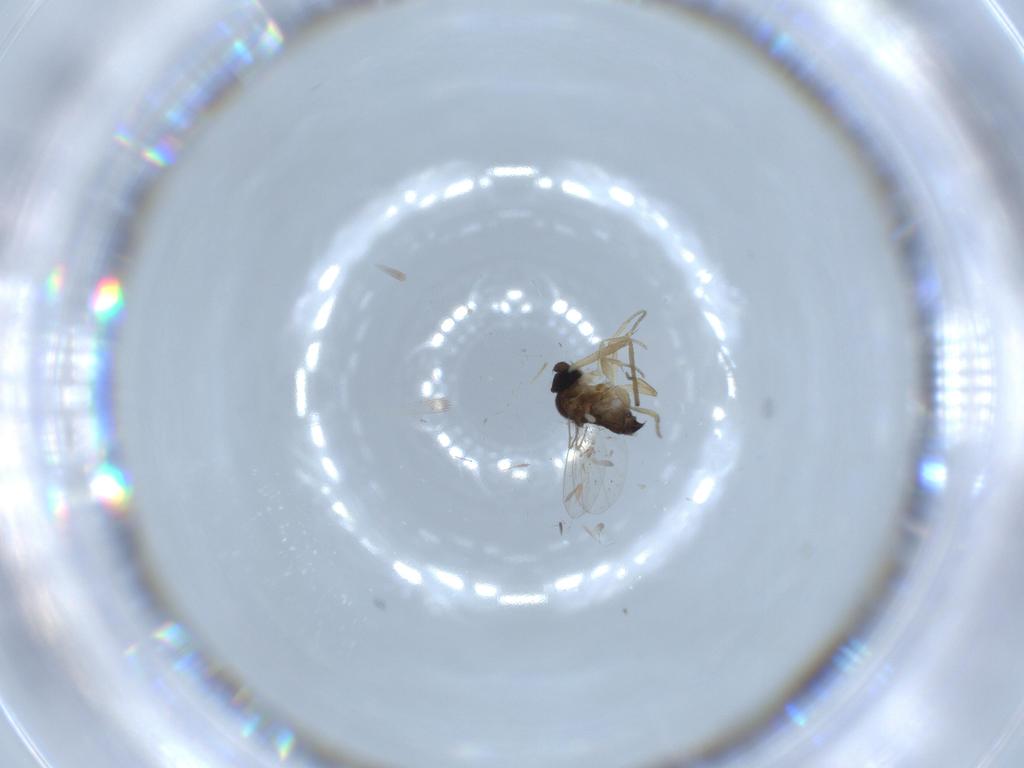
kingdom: Animalia
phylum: Arthropoda
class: Insecta
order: Diptera
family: Phoridae
